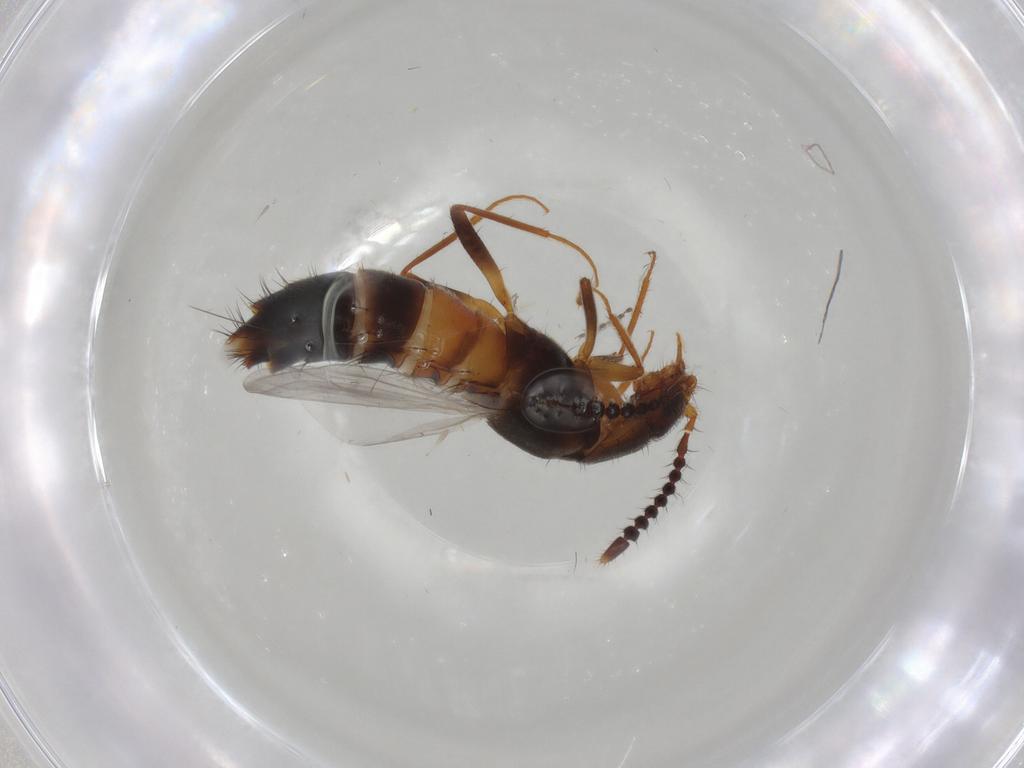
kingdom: Animalia
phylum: Arthropoda
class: Insecta
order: Coleoptera
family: Staphylinidae
